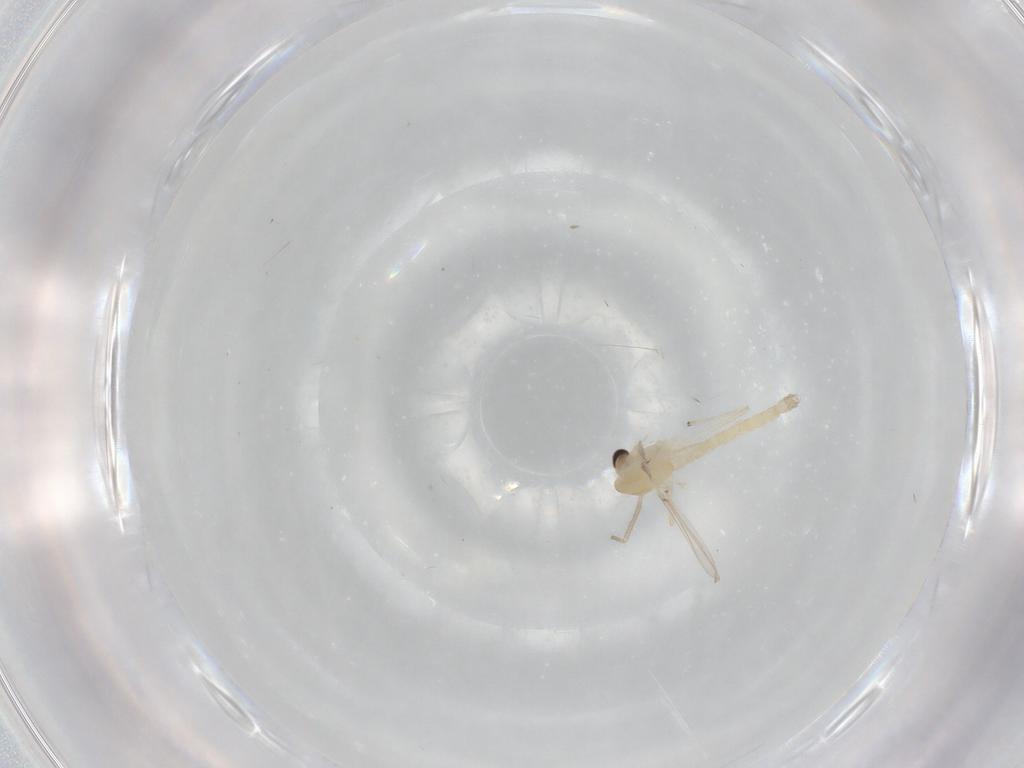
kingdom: Animalia
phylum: Arthropoda
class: Insecta
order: Diptera
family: Chironomidae
